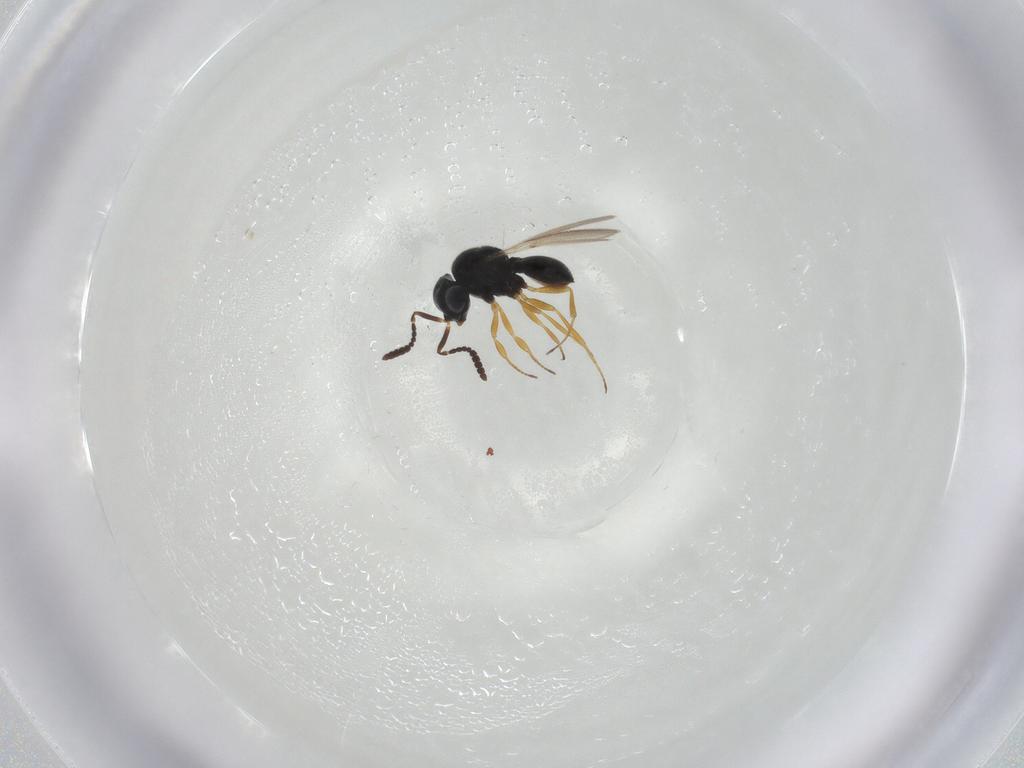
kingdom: Animalia
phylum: Arthropoda
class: Insecta
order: Hymenoptera
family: Scelionidae
